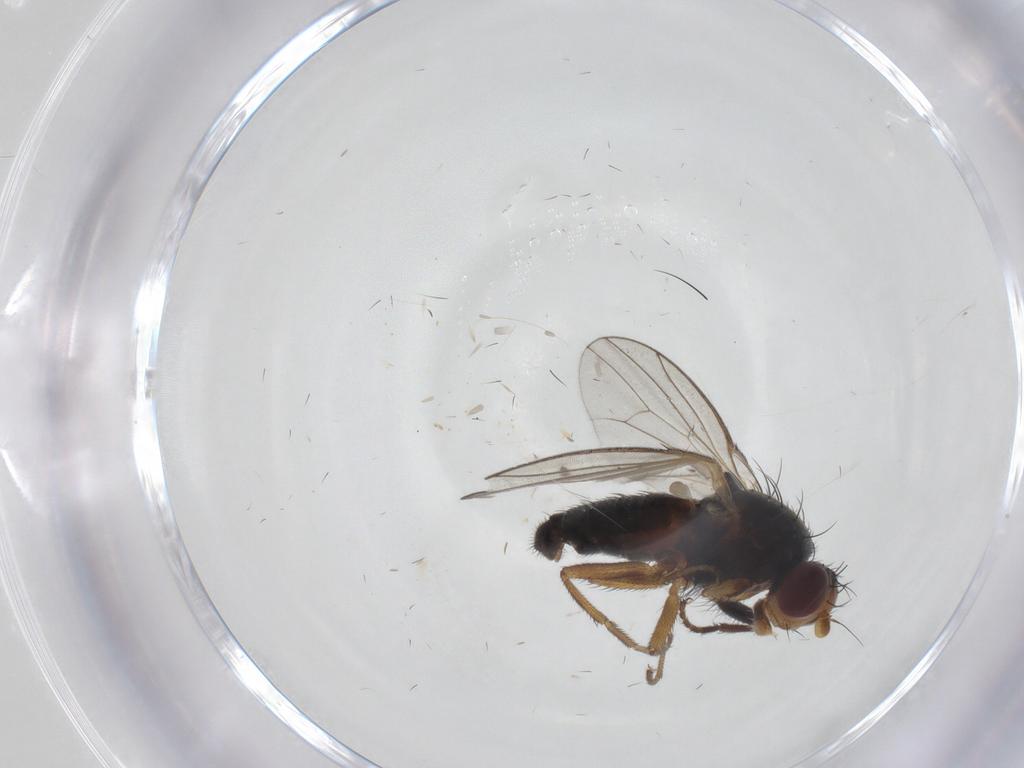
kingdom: Animalia
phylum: Arthropoda
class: Insecta
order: Diptera
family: Heleomyzidae
